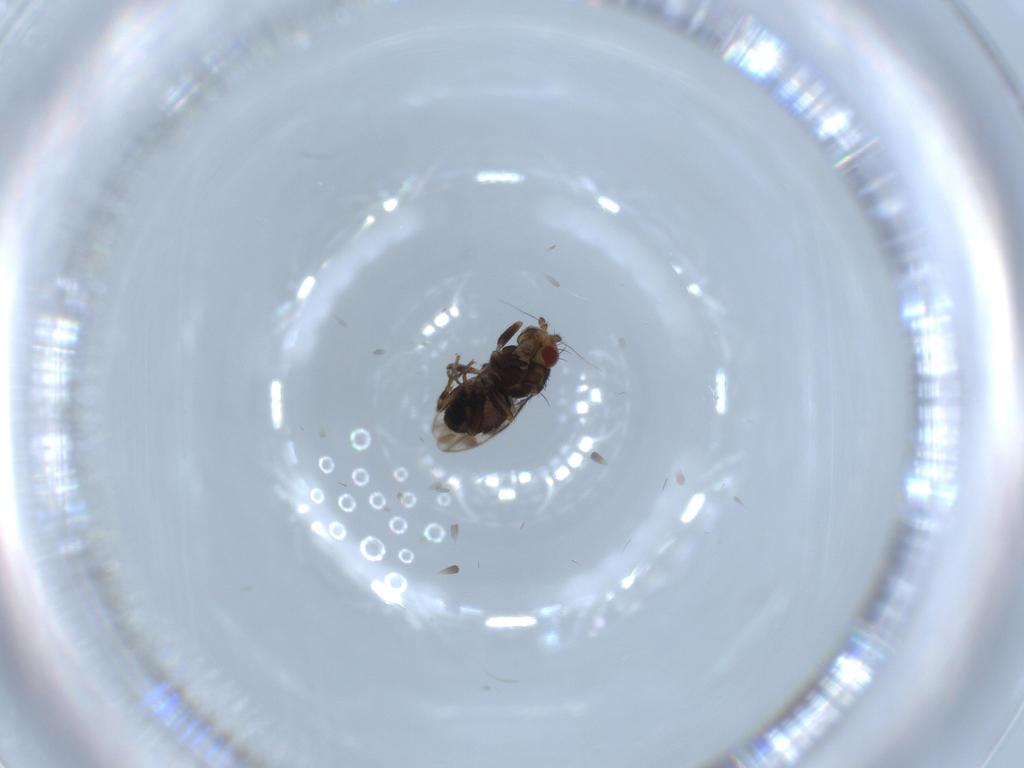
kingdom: Animalia
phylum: Arthropoda
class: Insecta
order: Diptera
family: Sphaeroceridae
